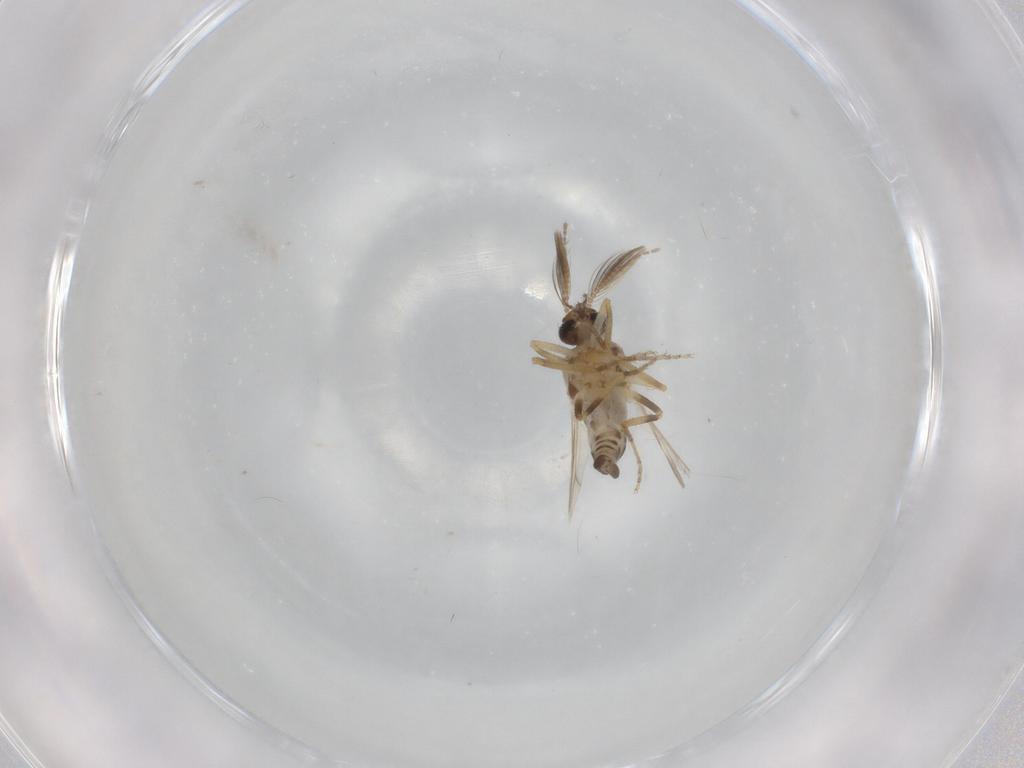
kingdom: Animalia
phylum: Arthropoda
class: Insecta
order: Diptera
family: Ceratopogonidae
